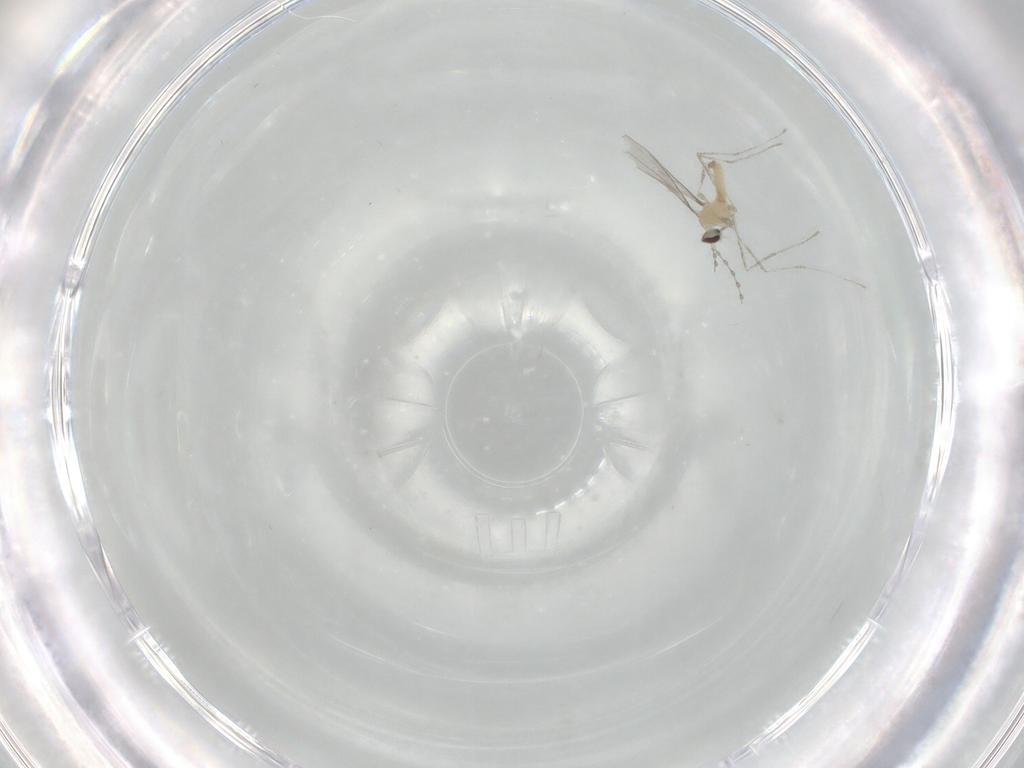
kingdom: Animalia
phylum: Arthropoda
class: Insecta
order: Diptera
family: Cecidomyiidae
